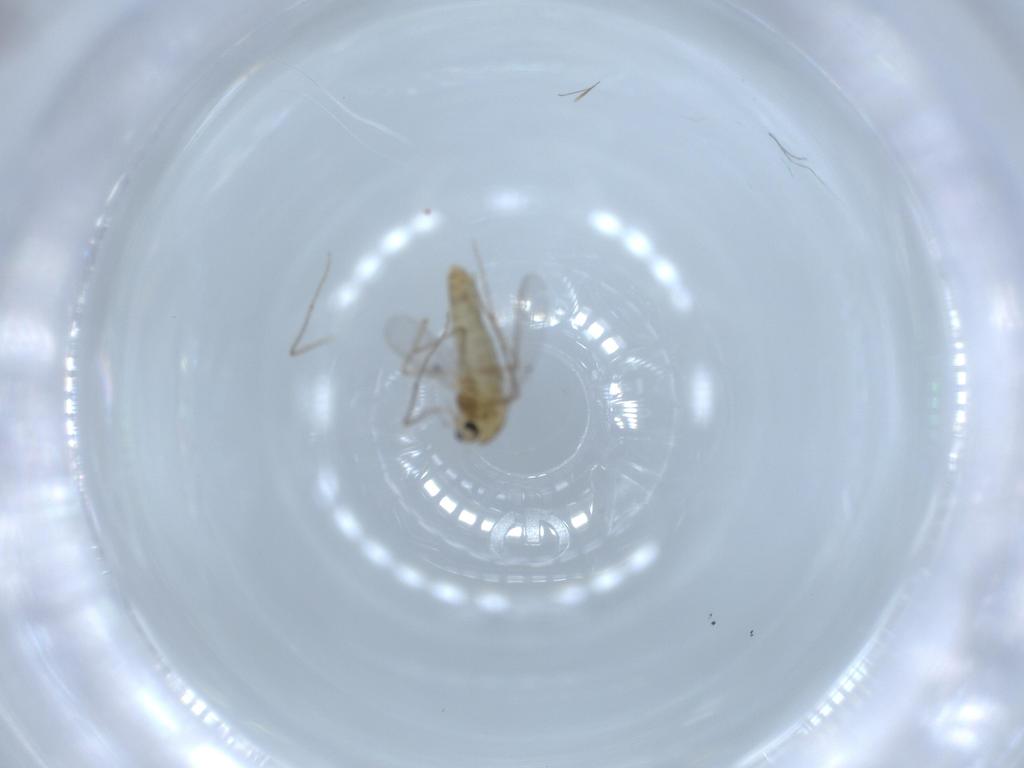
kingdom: Animalia
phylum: Arthropoda
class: Insecta
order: Diptera
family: Chironomidae
